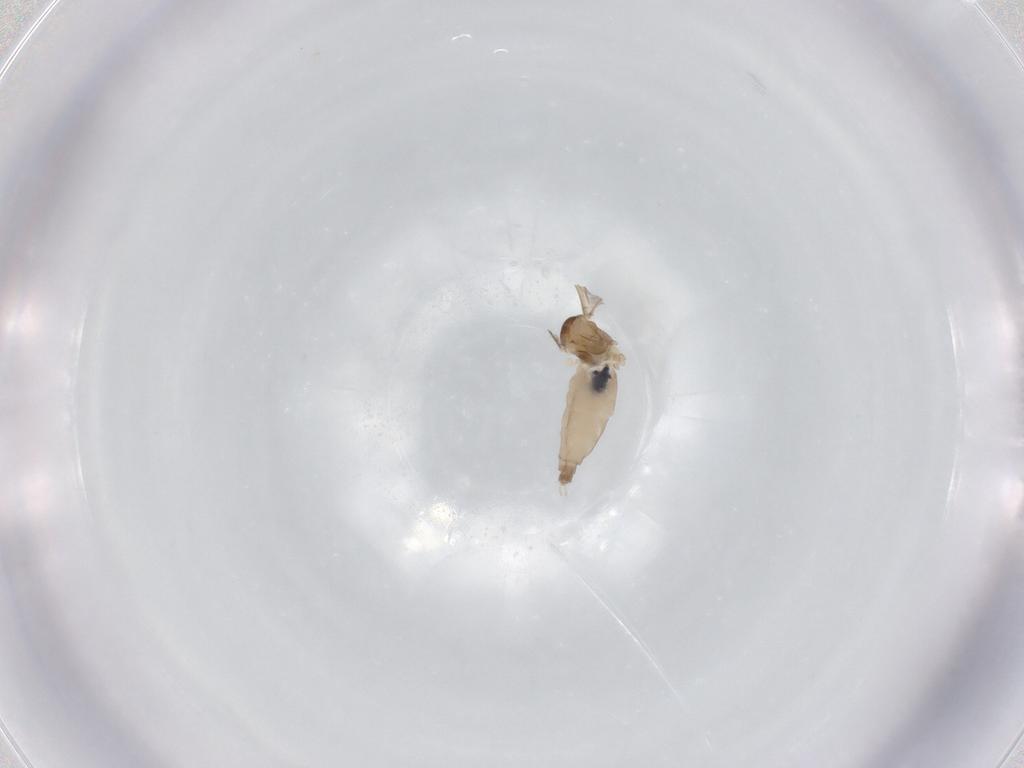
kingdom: Animalia
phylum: Arthropoda
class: Insecta
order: Diptera
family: Cecidomyiidae
